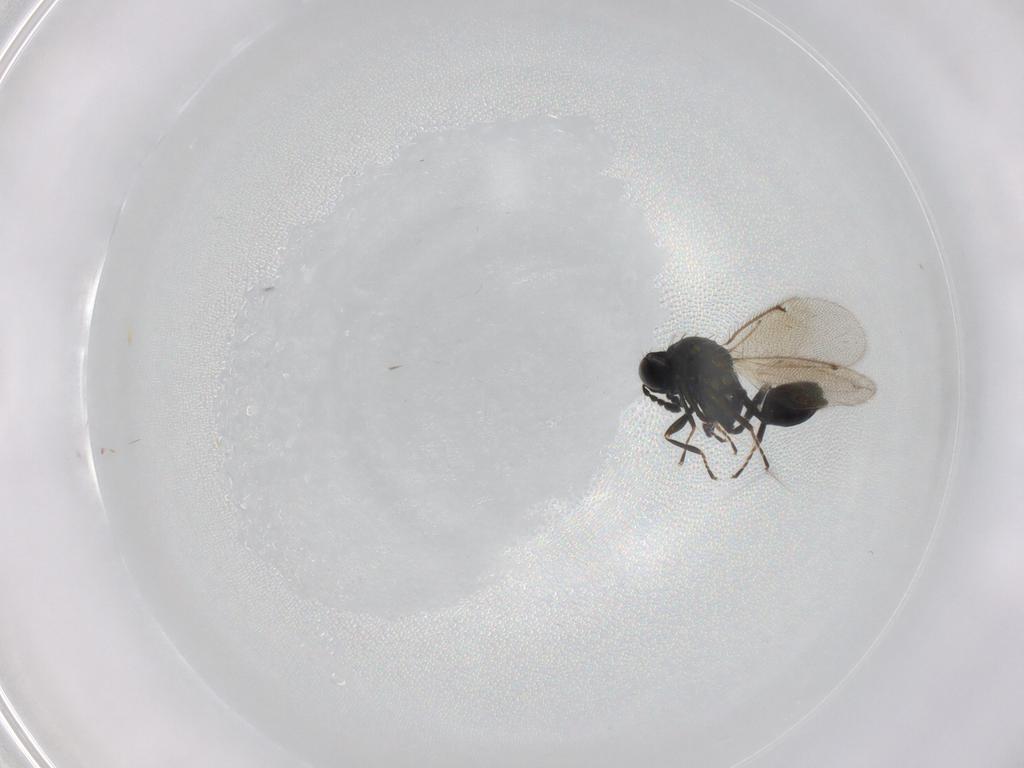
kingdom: Animalia
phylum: Arthropoda
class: Insecta
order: Hymenoptera
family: Eulophidae
